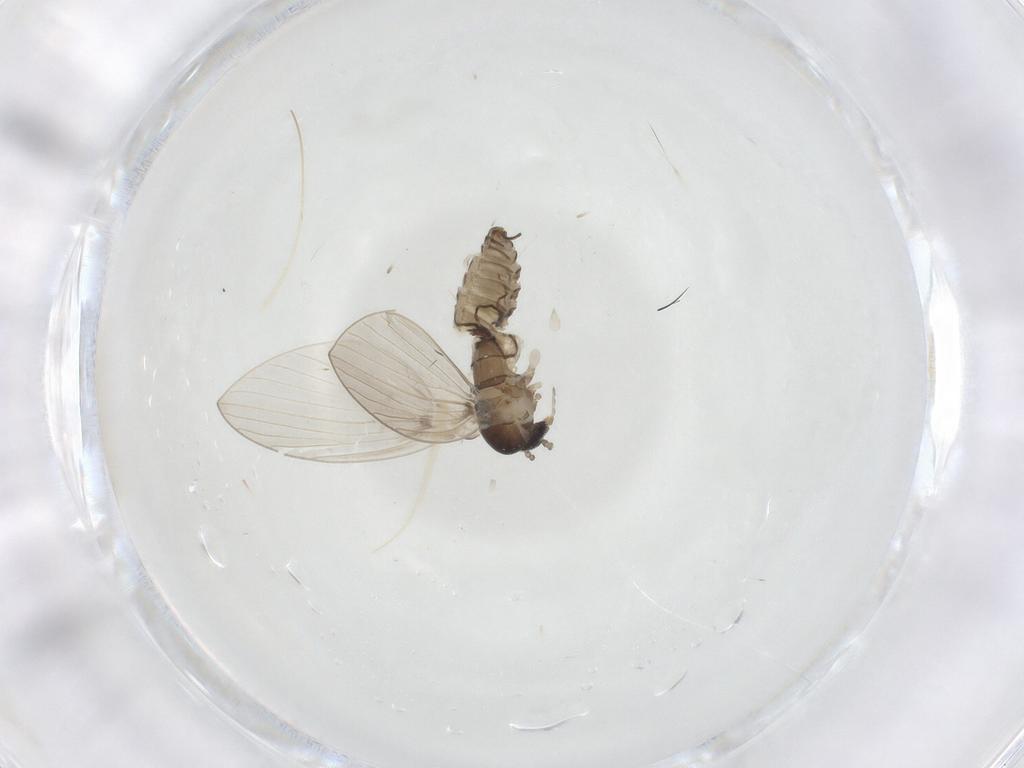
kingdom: Animalia
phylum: Arthropoda
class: Insecta
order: Diptera
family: Psychodidae
